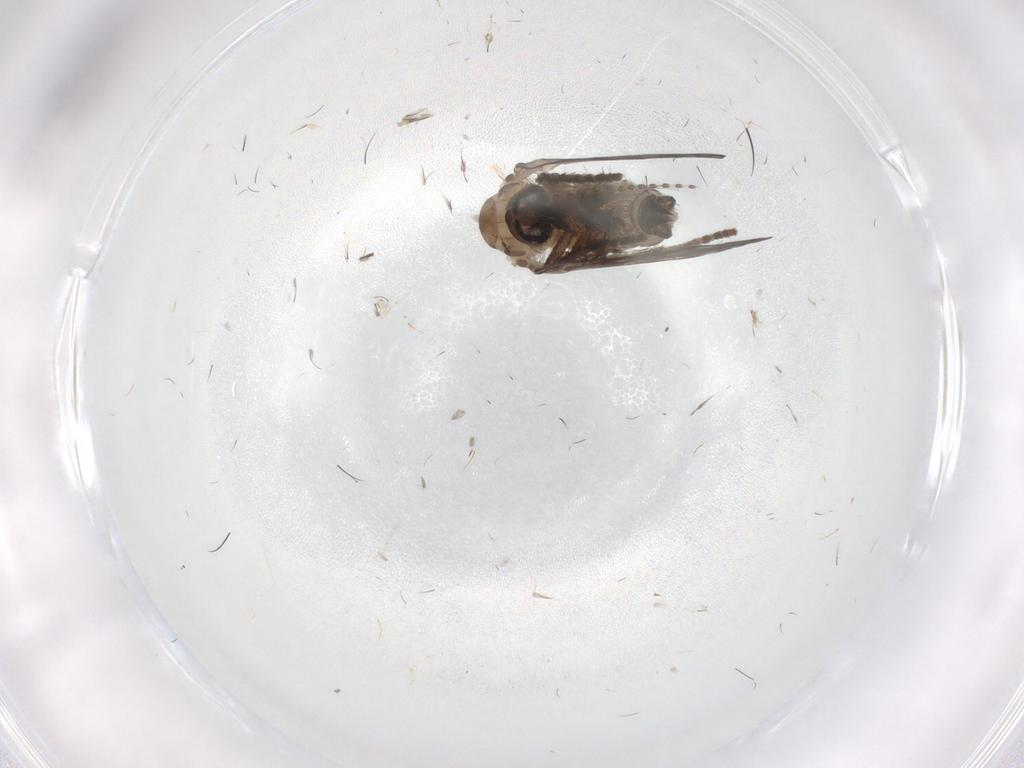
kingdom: Animalia
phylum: Arthropoda
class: Insecta
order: Diptera
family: Psychodidae
